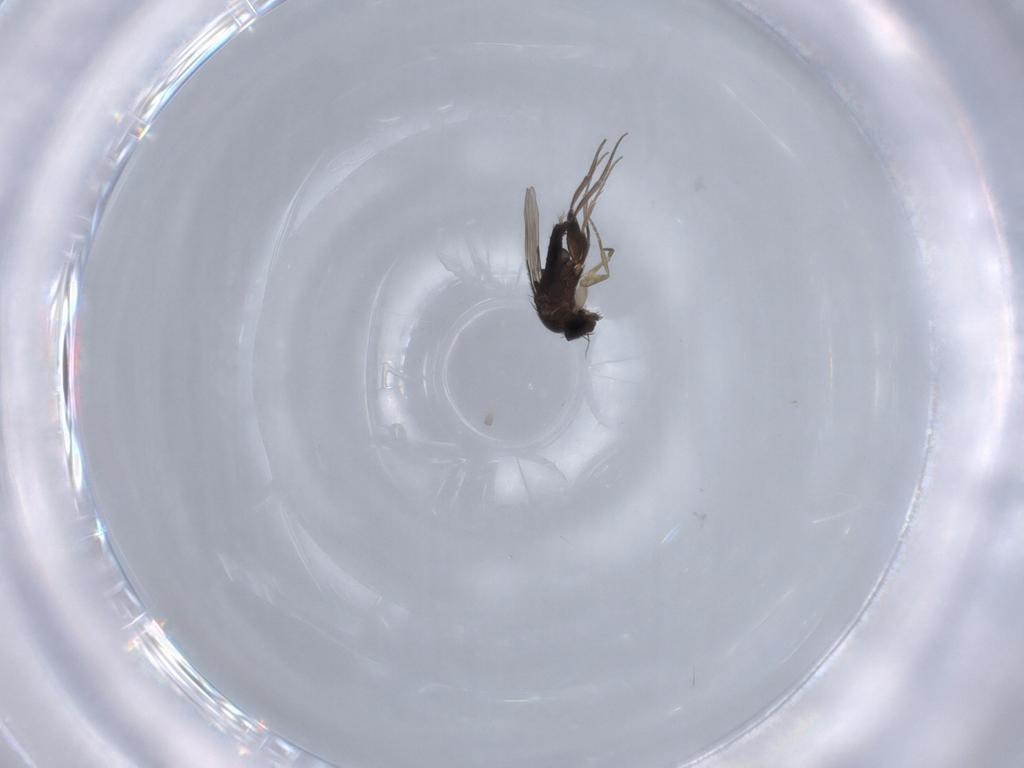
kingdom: Animalia
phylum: Arthropoda
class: Insecta
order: Diptera
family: Phoridae
